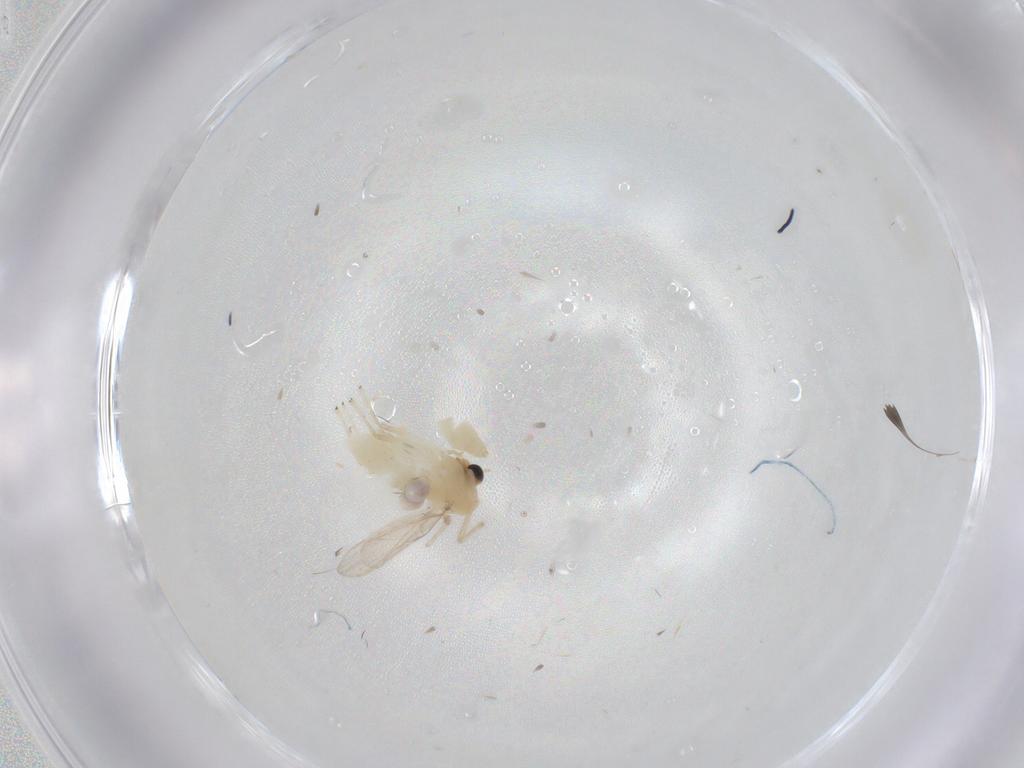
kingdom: Animalia
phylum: Arthropoda
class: Insecta
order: Diptera
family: Chironomidae
